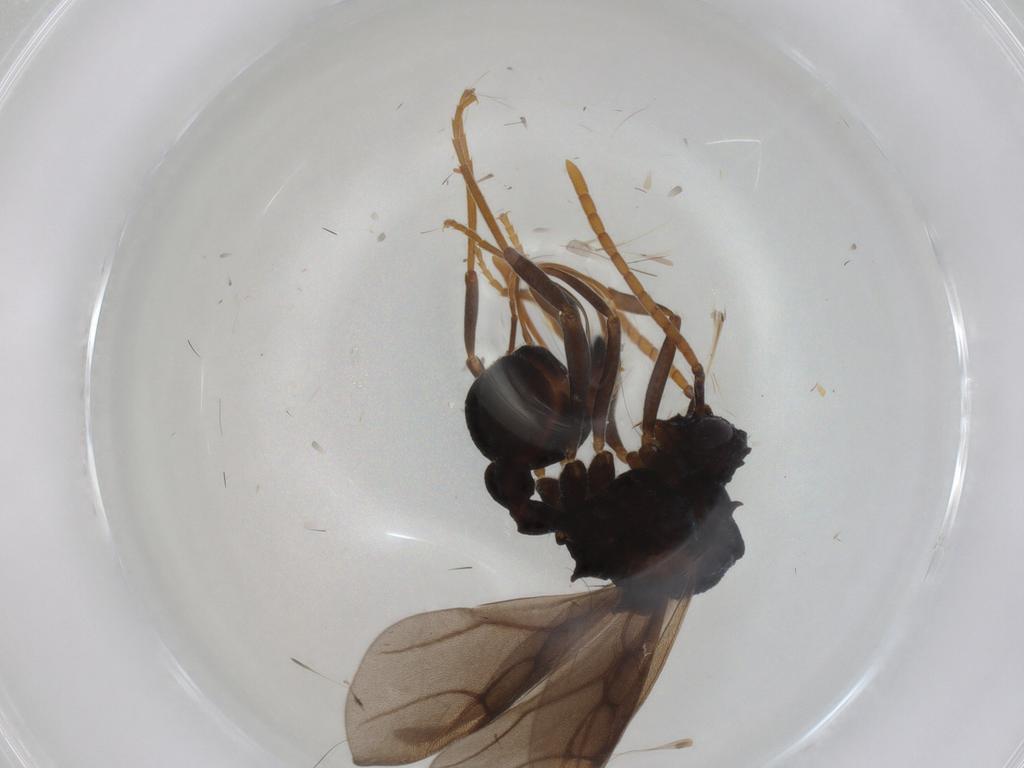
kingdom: Animalia
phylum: Arthropoda
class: Insecta
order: Hymenoptera
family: Formicidae
